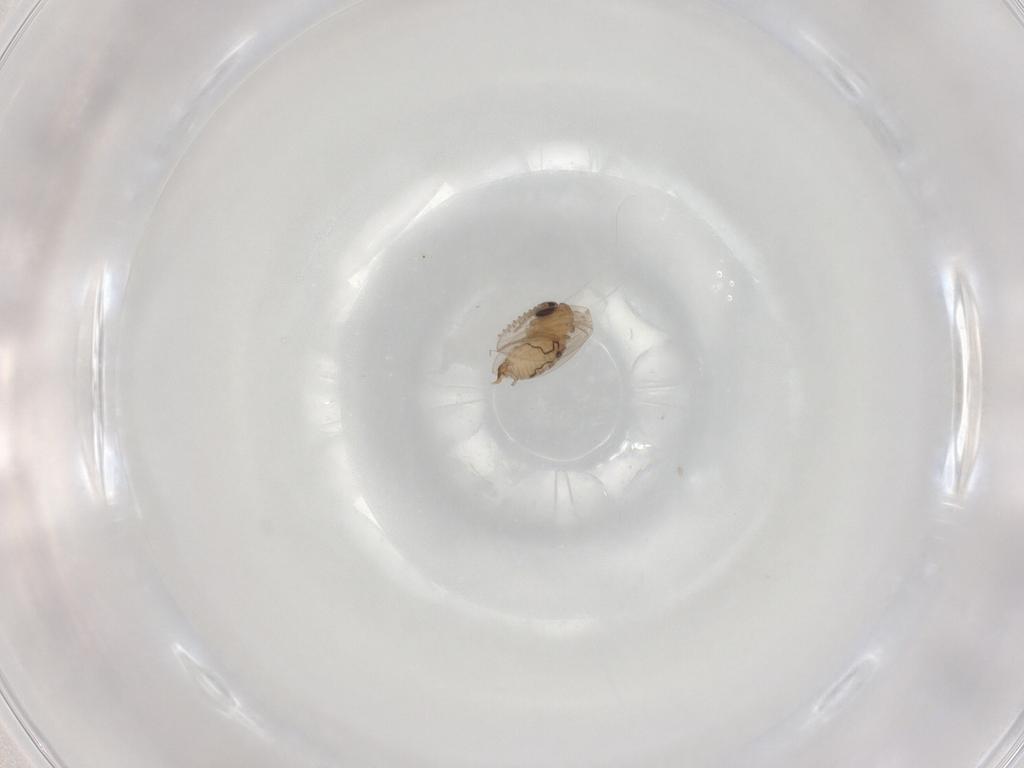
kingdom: Animalia
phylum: Arthropoda
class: Insecta
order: Diptera
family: Psychodidae
